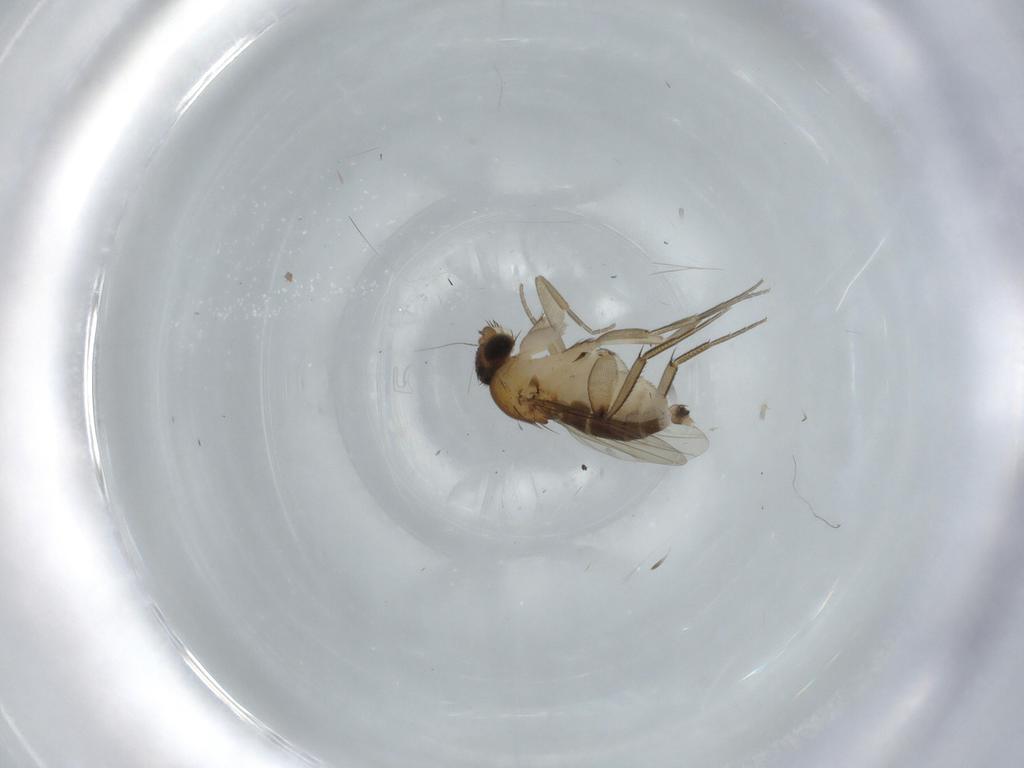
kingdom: Animalia
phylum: Arthropoda
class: Insecta
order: Diptera
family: Phoridae
